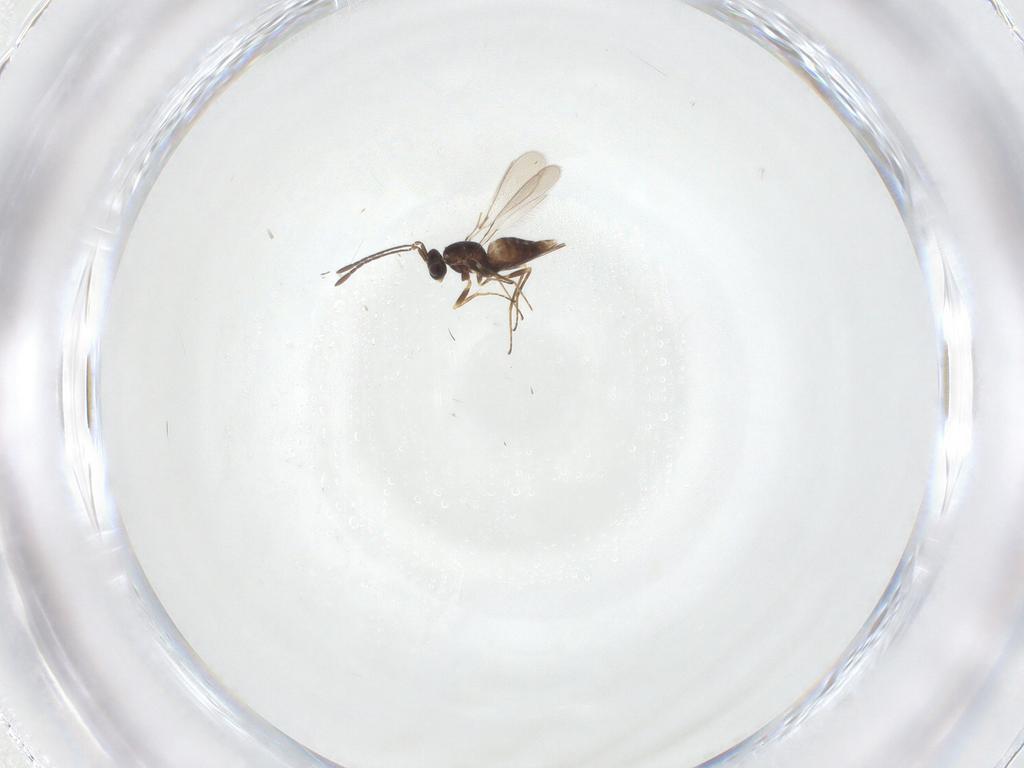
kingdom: Animalia
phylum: Arthropoda
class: Insecta
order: Hymenoptera
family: Mymaridae
